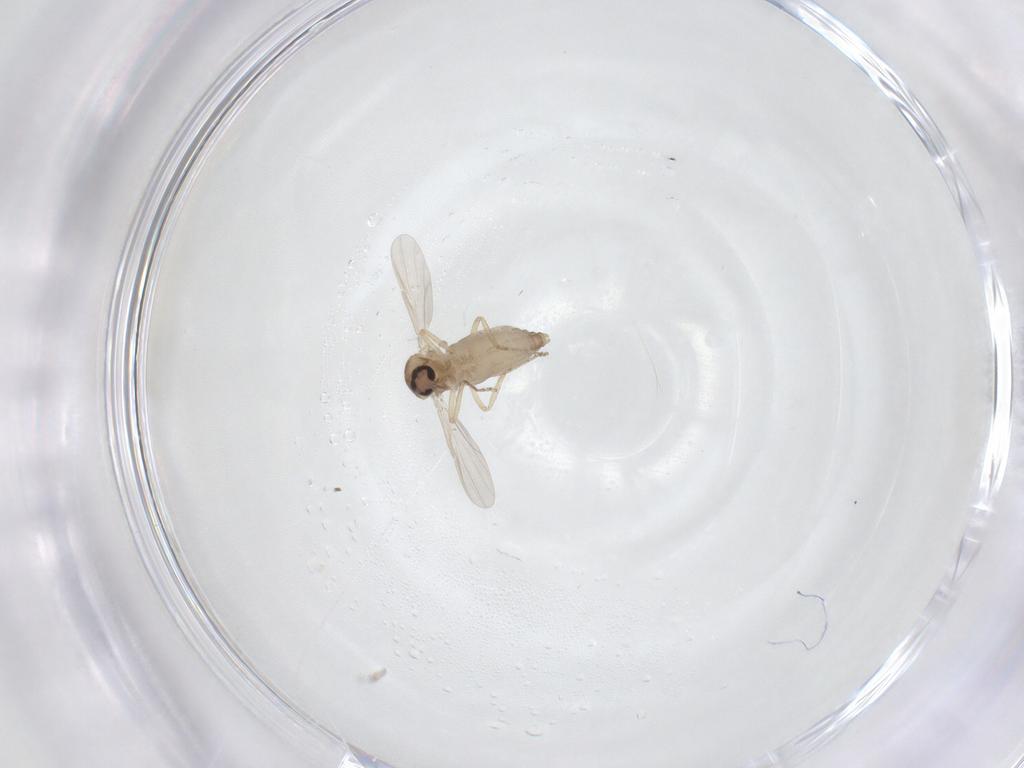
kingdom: Animalia
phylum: Arthropoda
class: Insecta
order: Diptera
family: Ceratopogonidae
